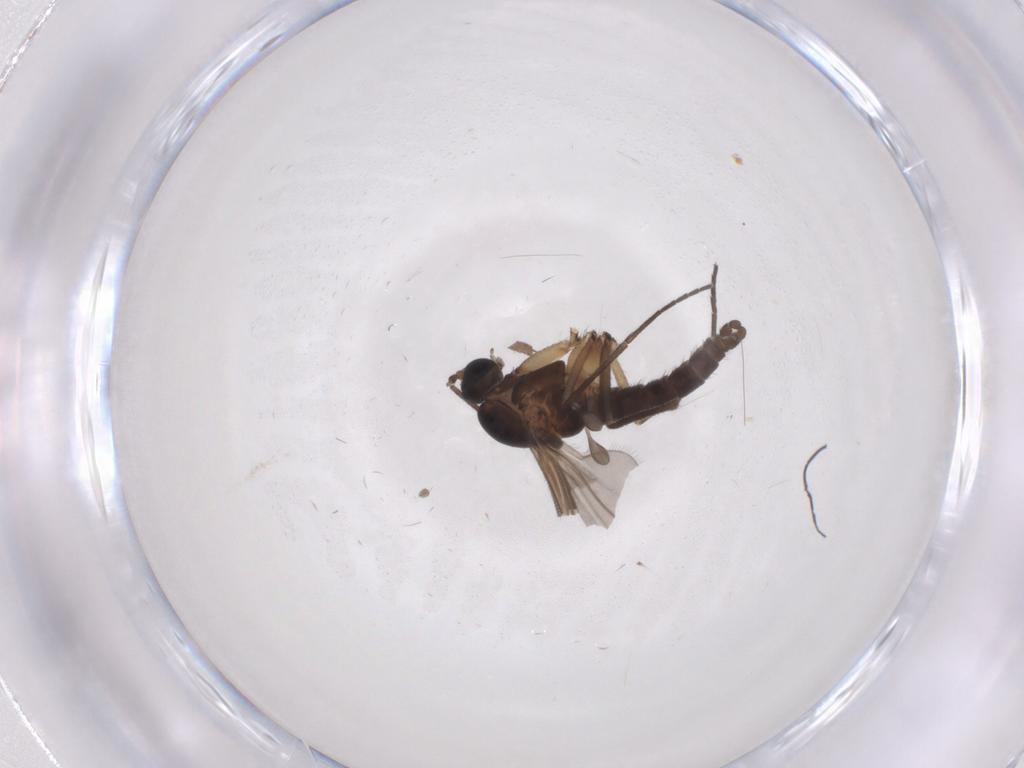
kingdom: Animalia
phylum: Arthropoda
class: Insecta
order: Diptera
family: Sciaridae
